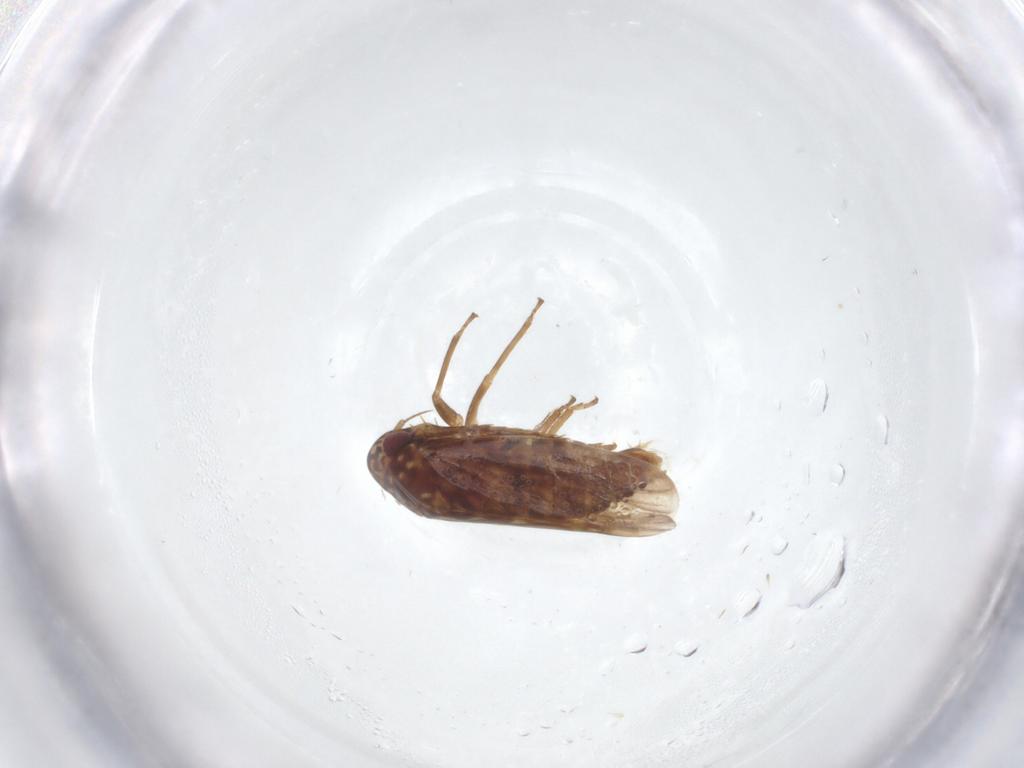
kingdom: Animalia
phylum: Arthropoda
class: Insecta
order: Hemiptera
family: Cicadellidae
